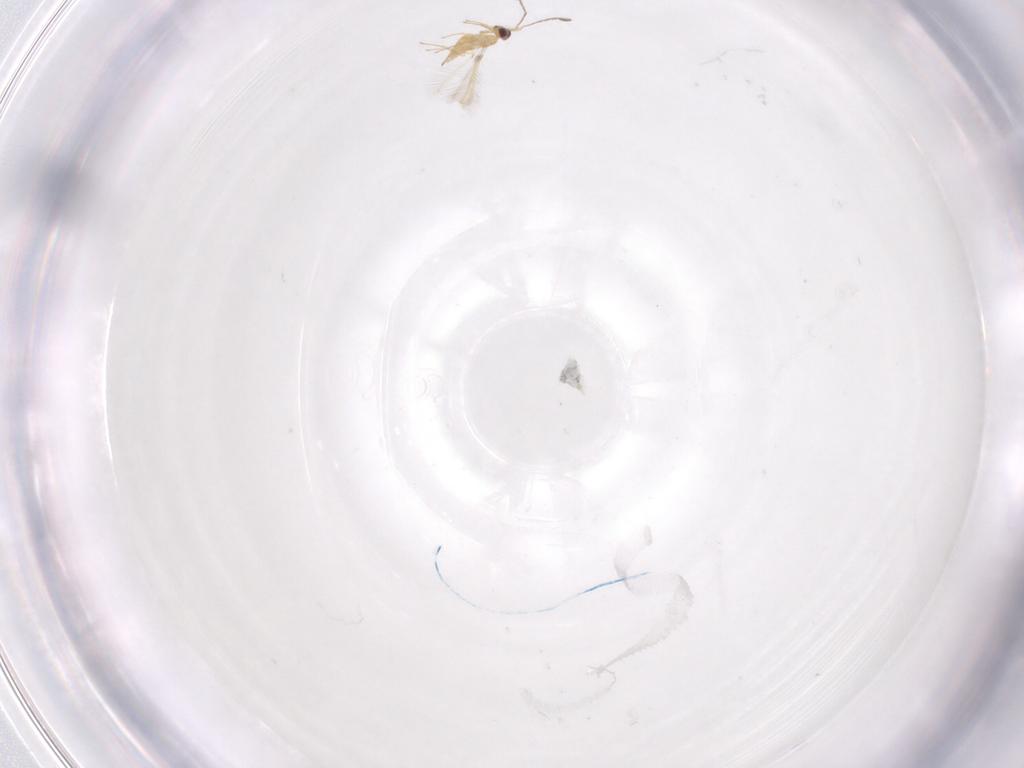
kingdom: Animalia
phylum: Arthropoda
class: Insecta
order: Hymenoptera
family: Mymaridae
